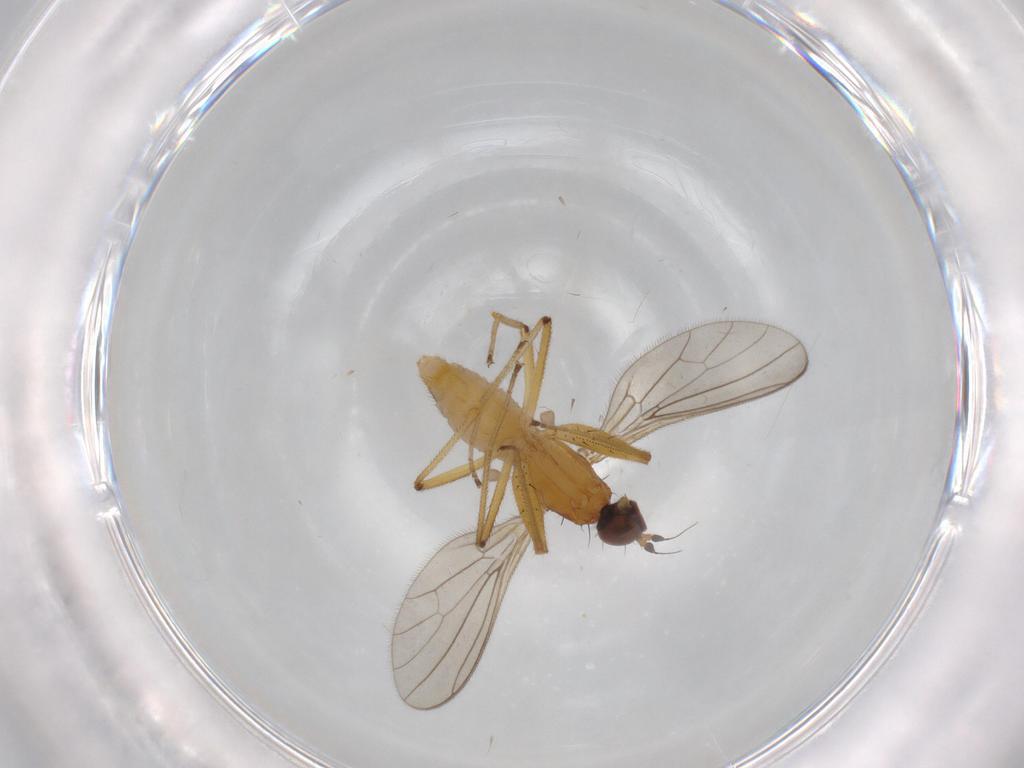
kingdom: Animalia
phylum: Arthropoda
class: Insecta
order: Diptera
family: Empididae
